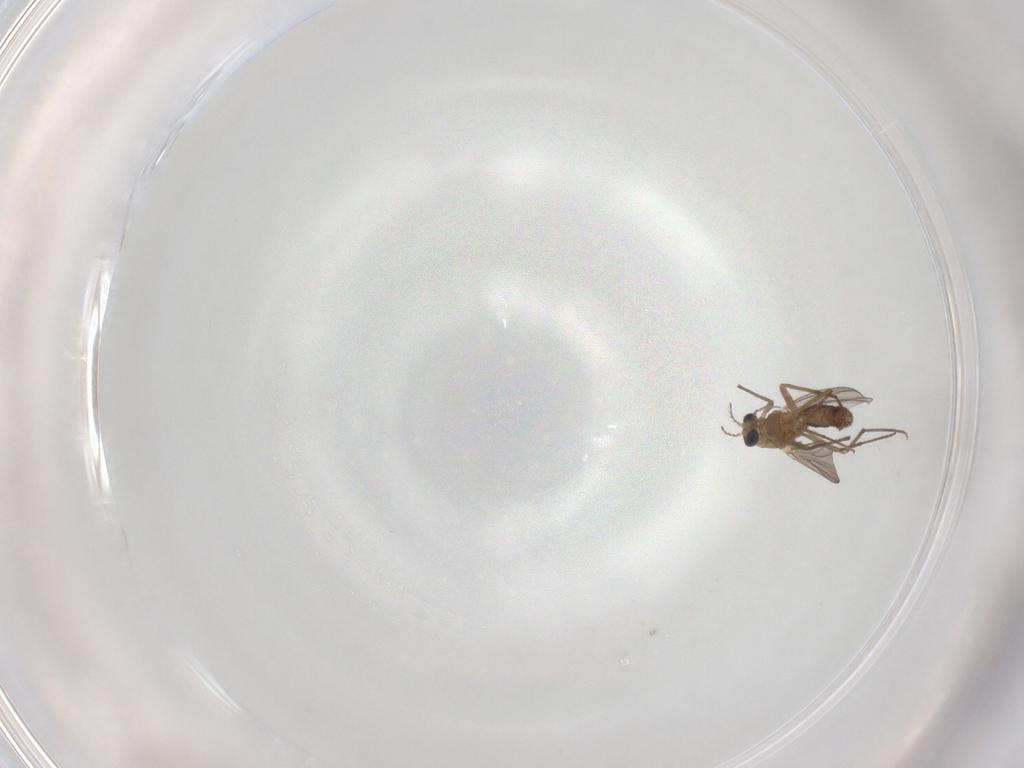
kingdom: Animalia
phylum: Arthropoda
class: Insecta
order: Diptera
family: Chironomidae
